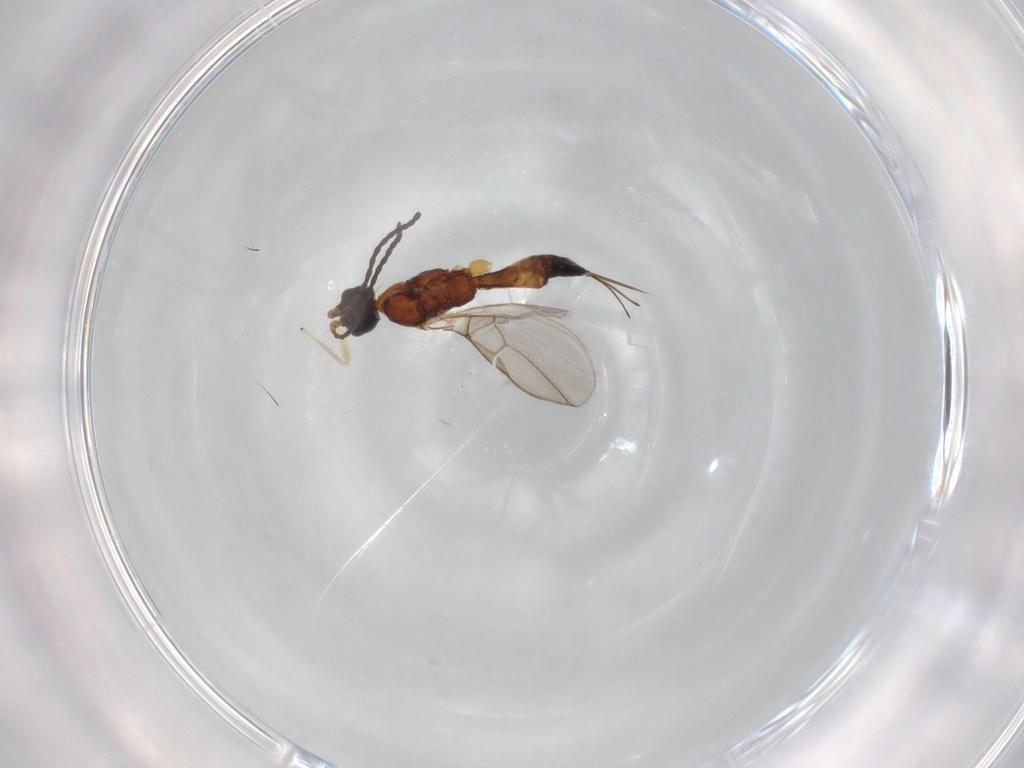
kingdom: Animalia
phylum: Arthropoda
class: Insecta
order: Hymenoptera
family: Braconidae
